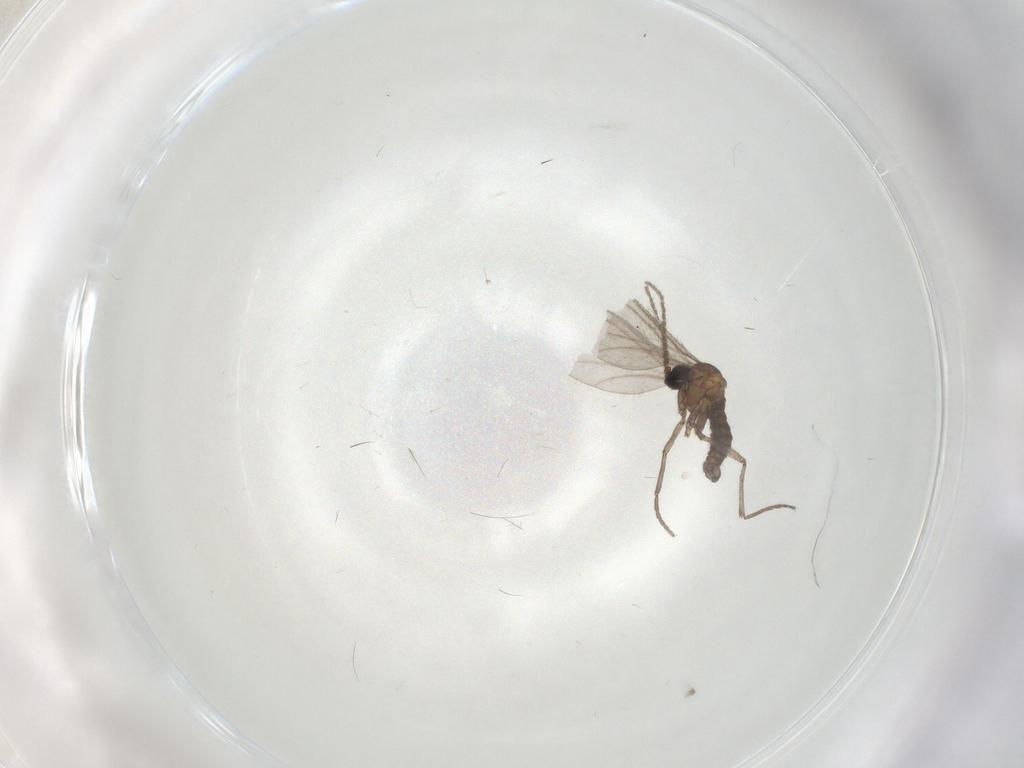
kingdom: Animalia
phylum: Arthropoda
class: Insecta
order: Diptera
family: Sciaridae
